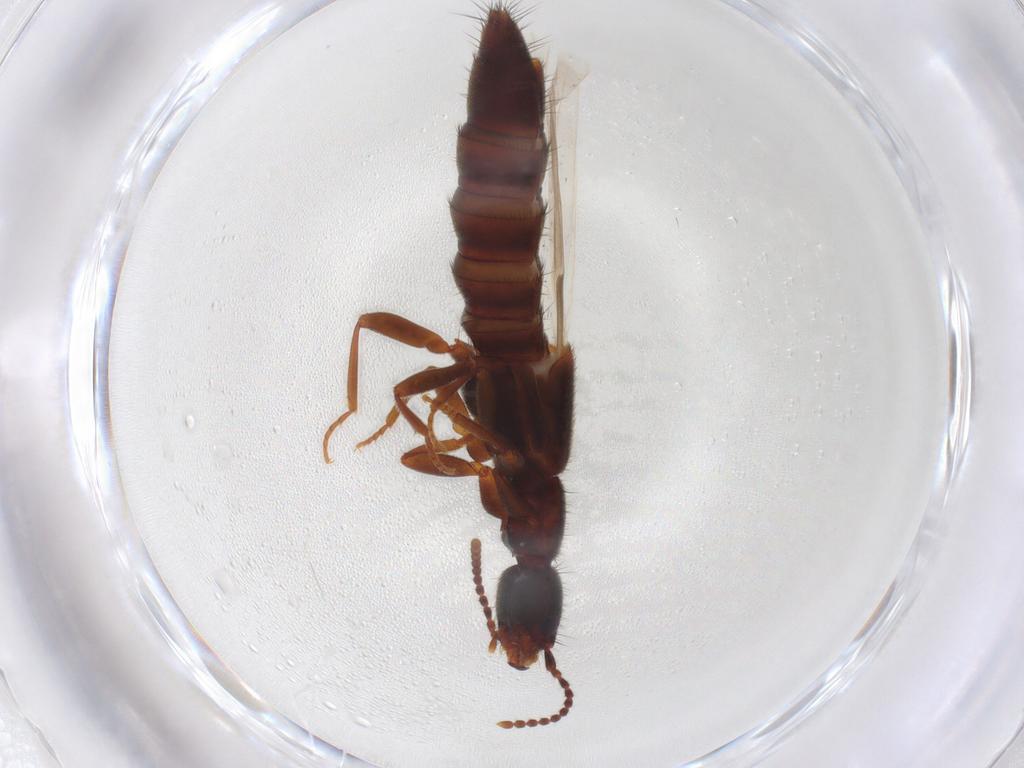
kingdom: Animalia
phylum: Arthropoda
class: Insecta
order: Coleoptera
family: Staphylinidae
